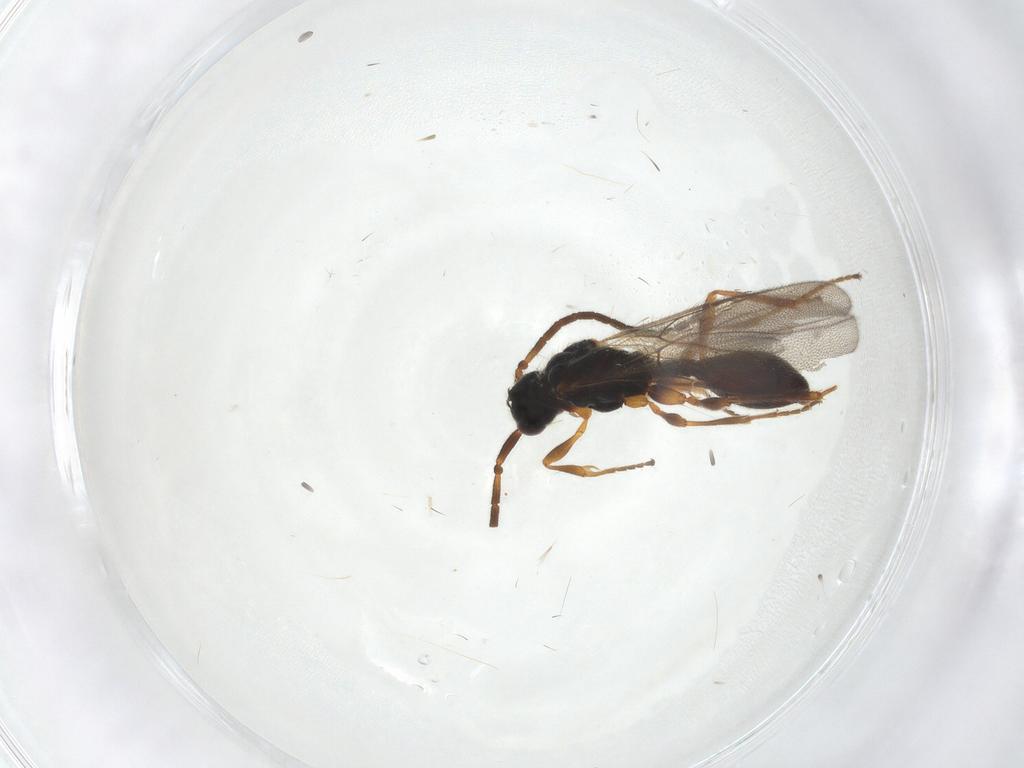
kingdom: Animalia
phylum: Arthropoda
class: Insecta
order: Hymenoptera
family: Diapriidae
